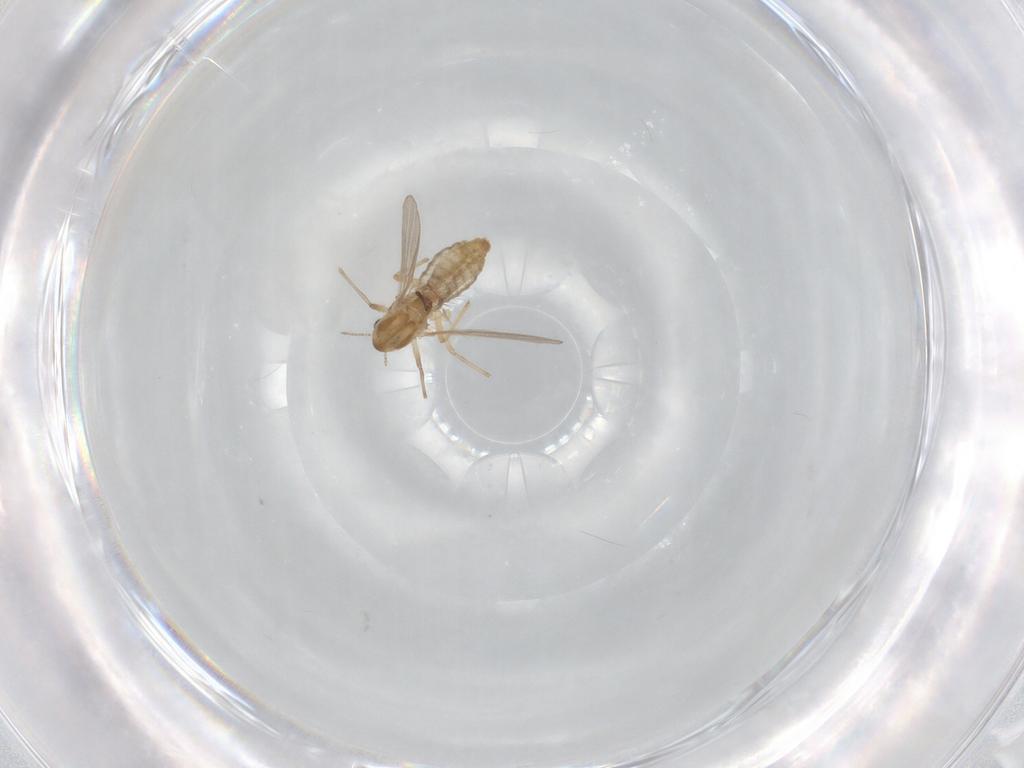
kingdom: Animalia
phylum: Arthropoda
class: Insecta
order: Diptera
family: Chironomidae
